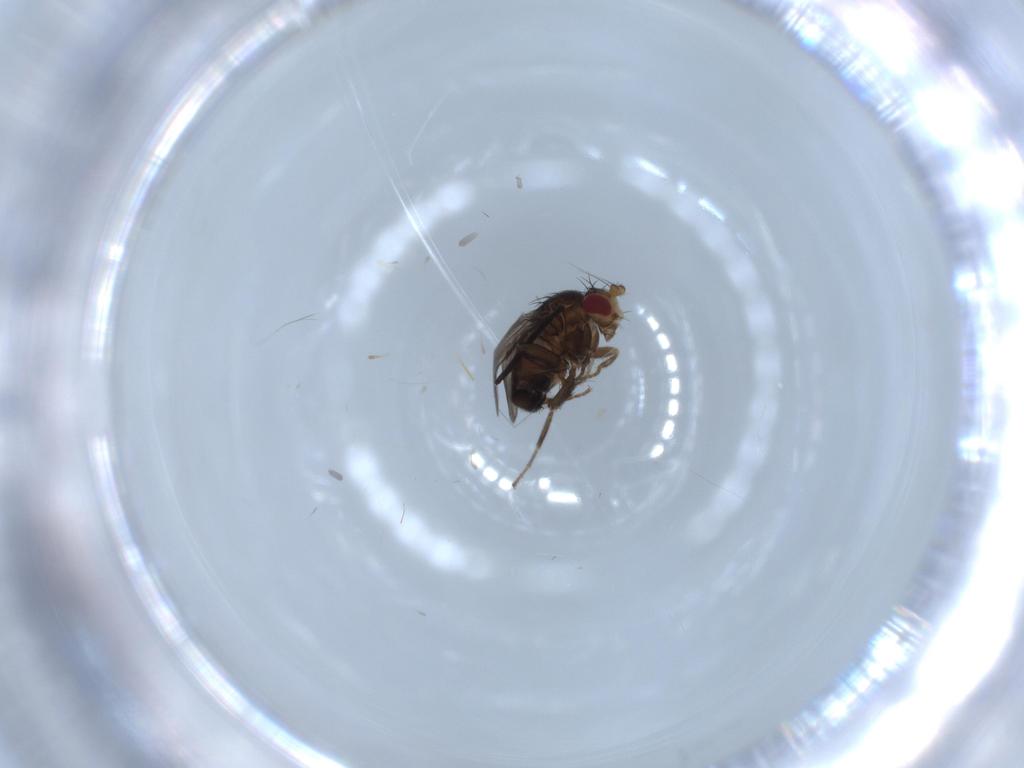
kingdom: Animalia
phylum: Arthropoda
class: Insecta
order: Diptera
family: Sphaeroceridae
